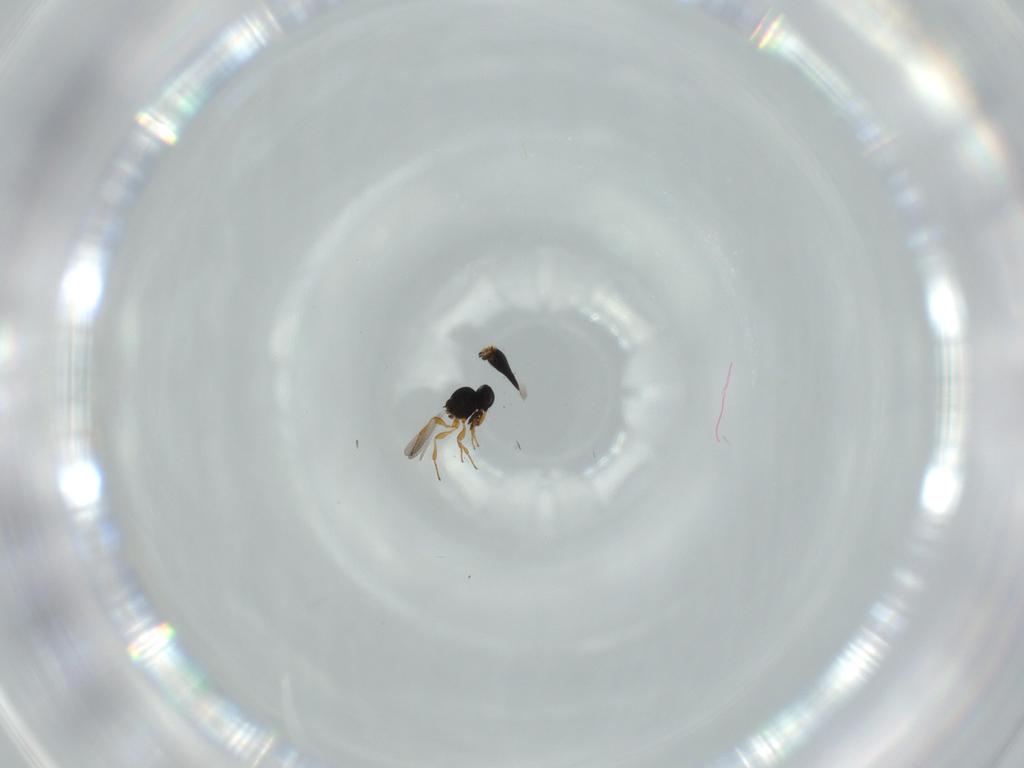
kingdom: Animalia
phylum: Arthropoda
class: Insecta
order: Hymenoptera
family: Platygastridae
